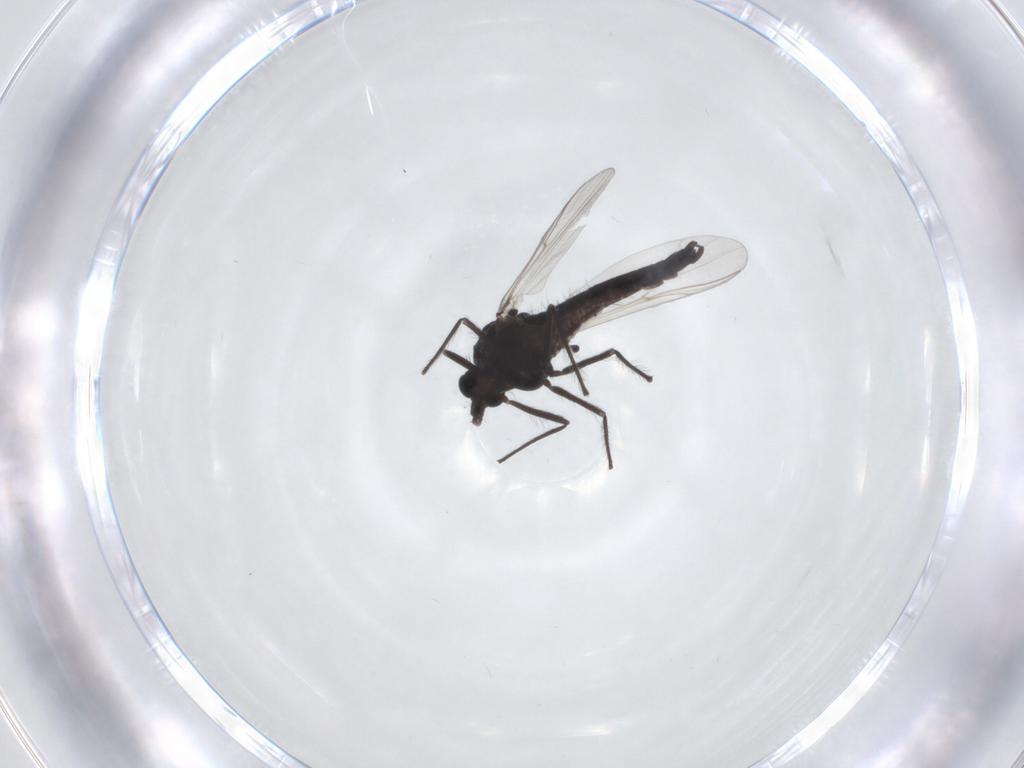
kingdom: Animalia
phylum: Arthropoda
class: Insecta
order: Diptera
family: Chironomidae
